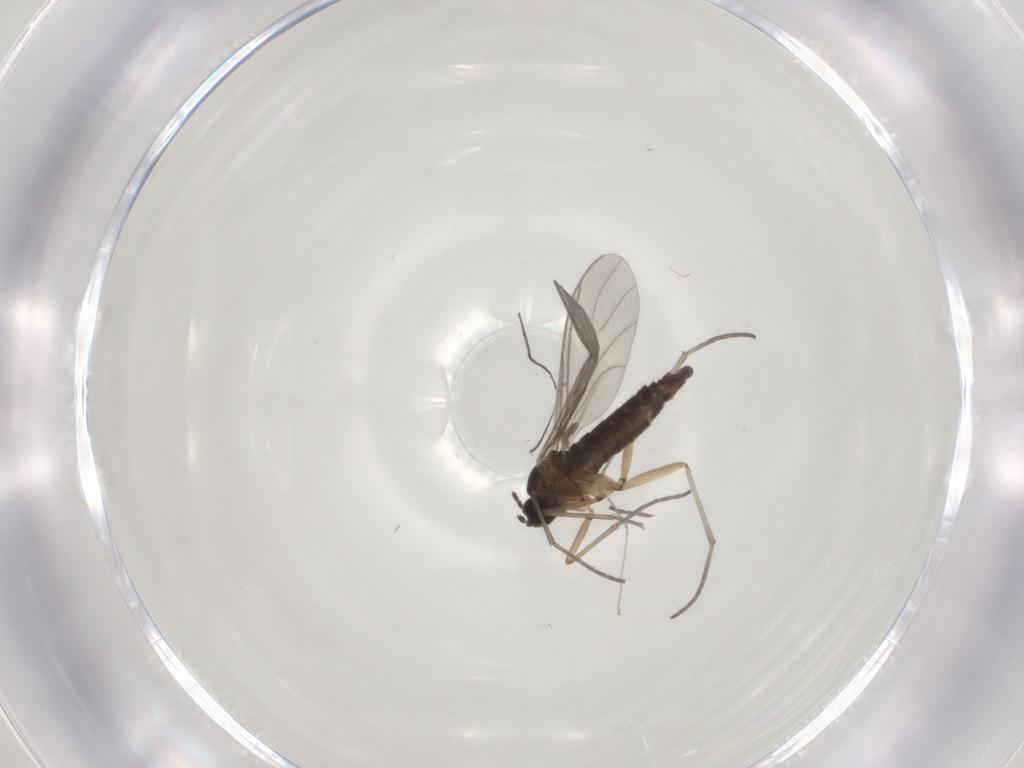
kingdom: Animalia
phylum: Arthropoda
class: Insecta
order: Diptera
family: Sciaridae
